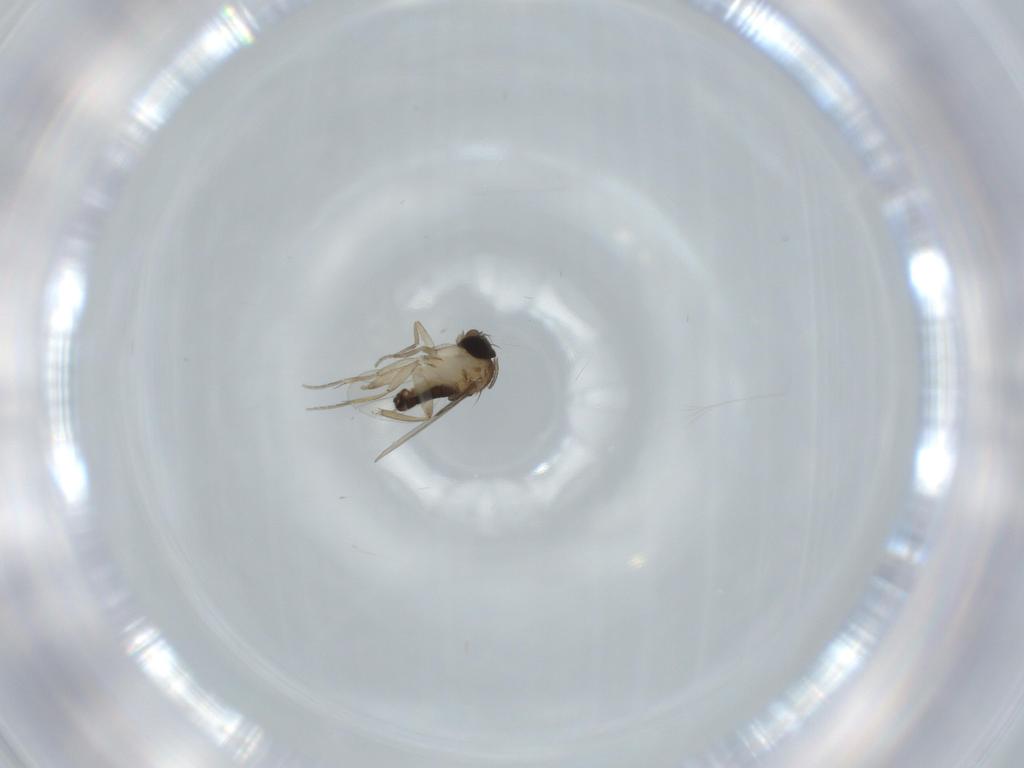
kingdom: Animalia
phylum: Arthropoda
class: Insecta
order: Diptera
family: Phoridae
